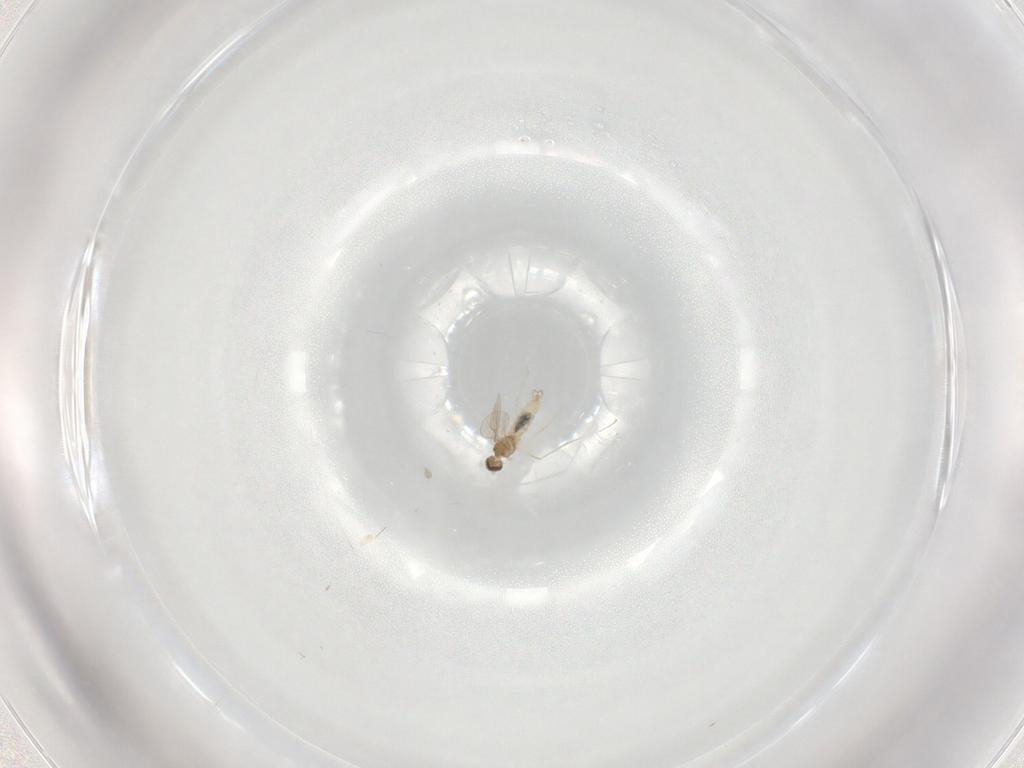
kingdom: Animalia
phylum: Arthropoda
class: Insecta
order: Diptera
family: Cecidomyiidae
